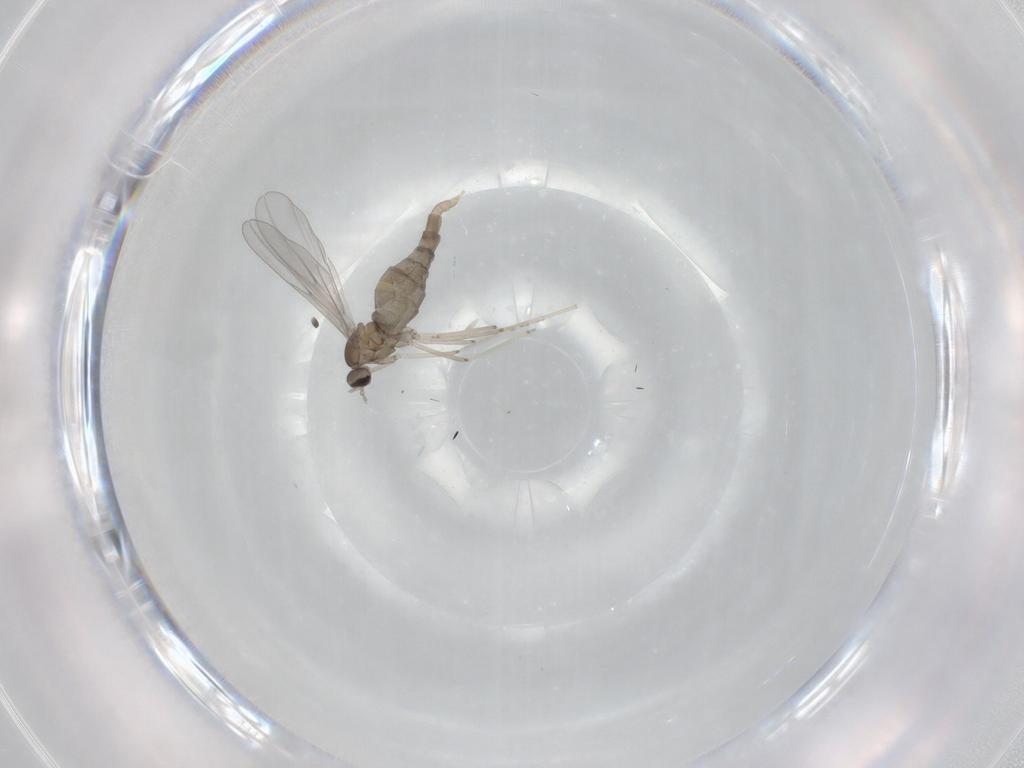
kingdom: Animalia
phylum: Arthropoda
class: Insecta
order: Diptera
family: Cecidomyiidae
